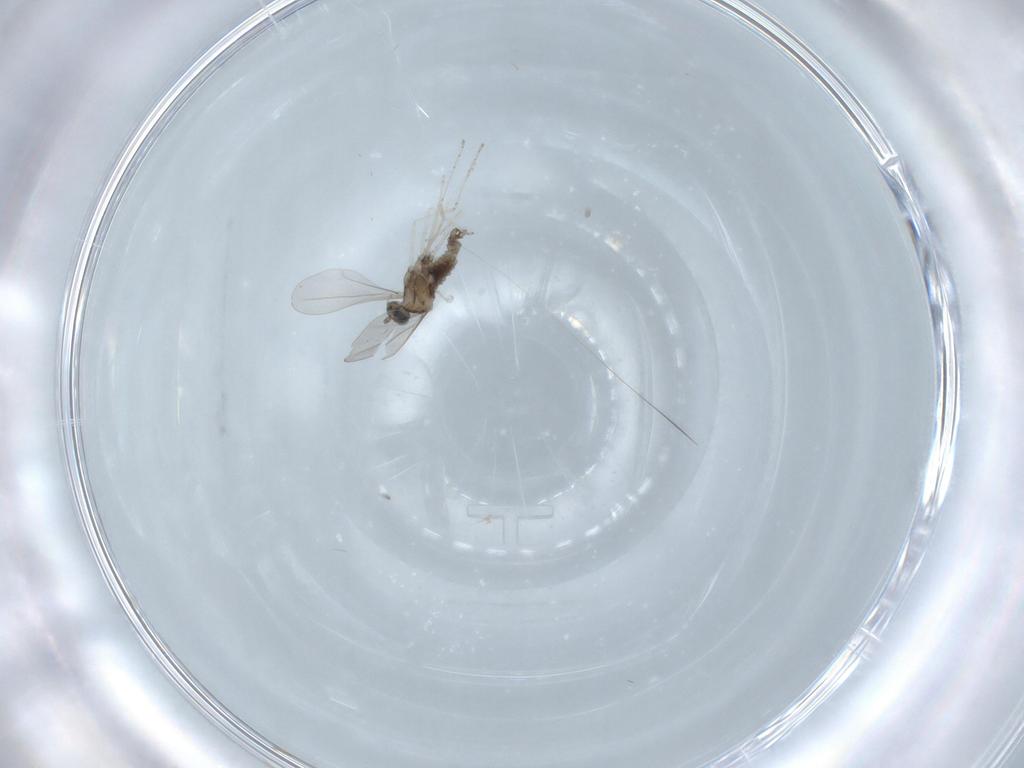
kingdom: Animalia
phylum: Arthropoda
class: Insecta
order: Diptera
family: Cecidomyiidae
